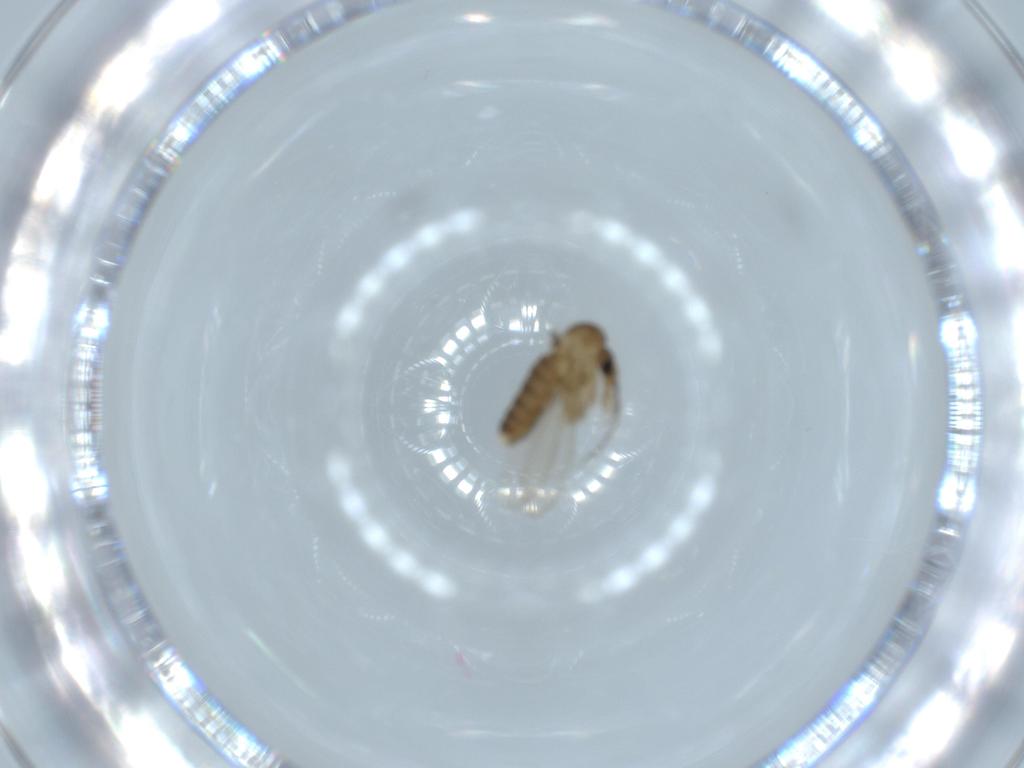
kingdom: Animalia
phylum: Arthropoda
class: Insecta
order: Diptera
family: Psychodidae
